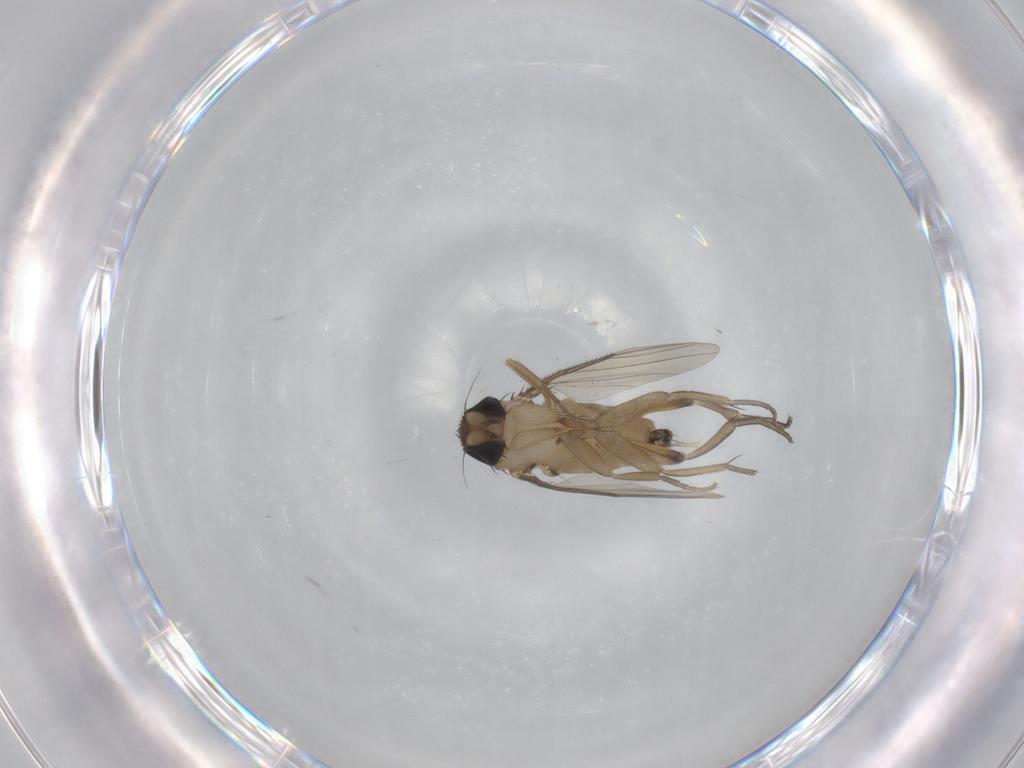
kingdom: Animalia
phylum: Arthropoda
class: Insecta
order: Diptera
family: Phoridae
